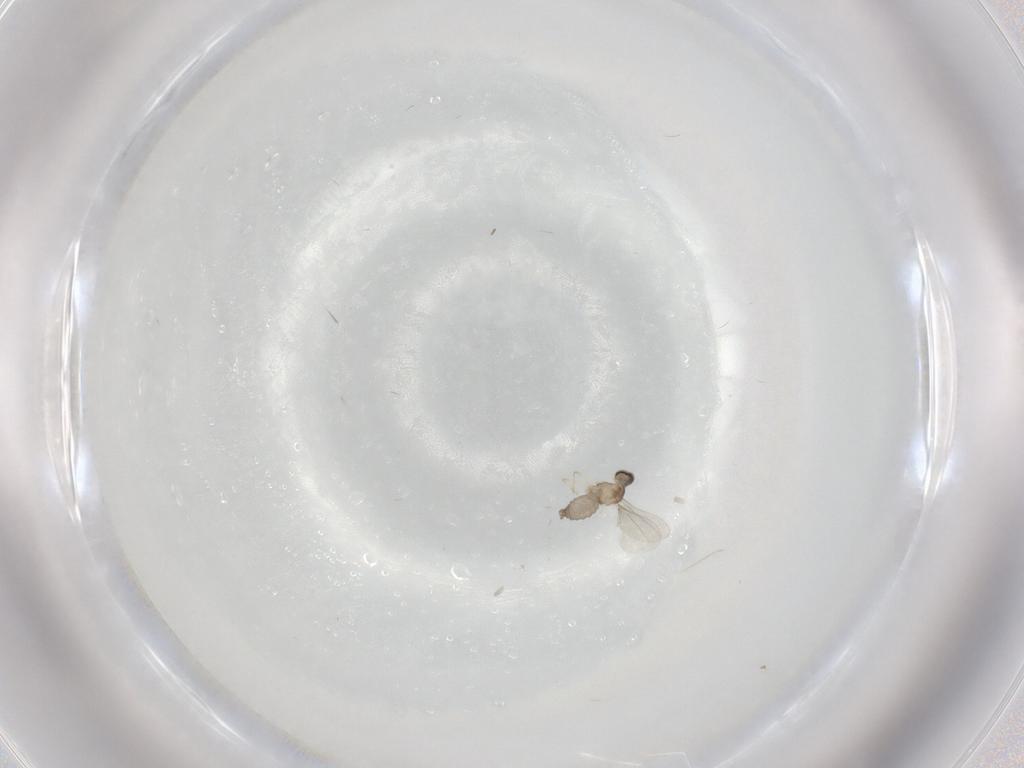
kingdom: Animalia
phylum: Arthropoda
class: Insecta
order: Diptera
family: Cecidomyiidae
